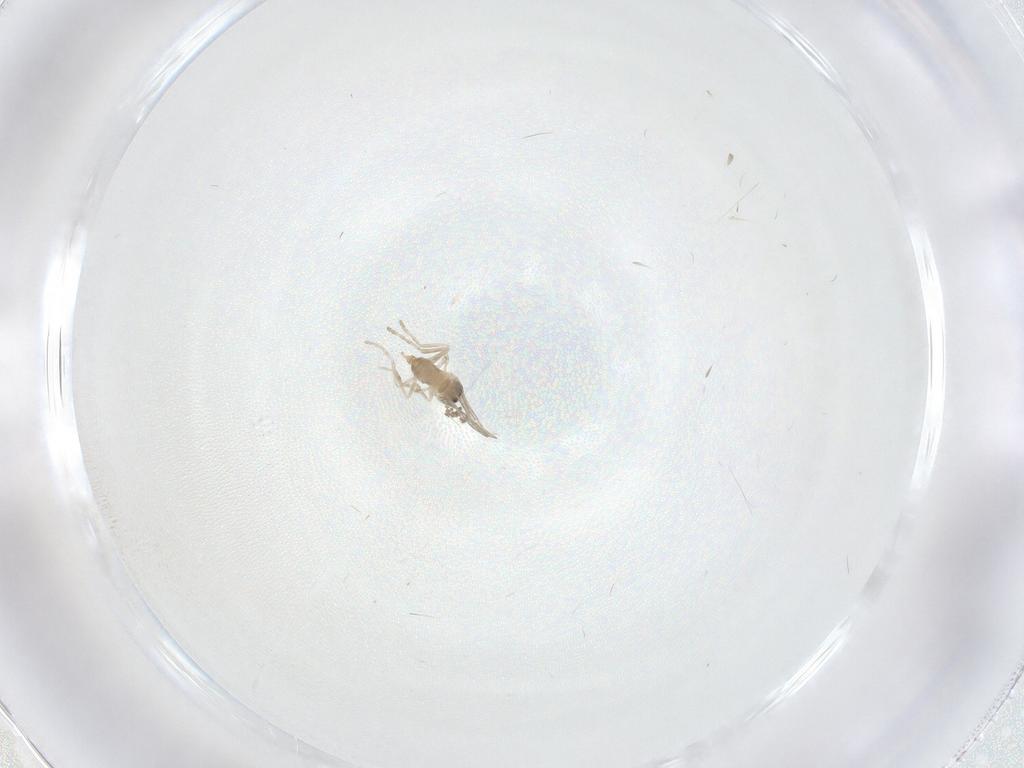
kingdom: Animalia
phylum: Arthropoda
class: Insecta
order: Diptera
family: Cecidomyiidae
